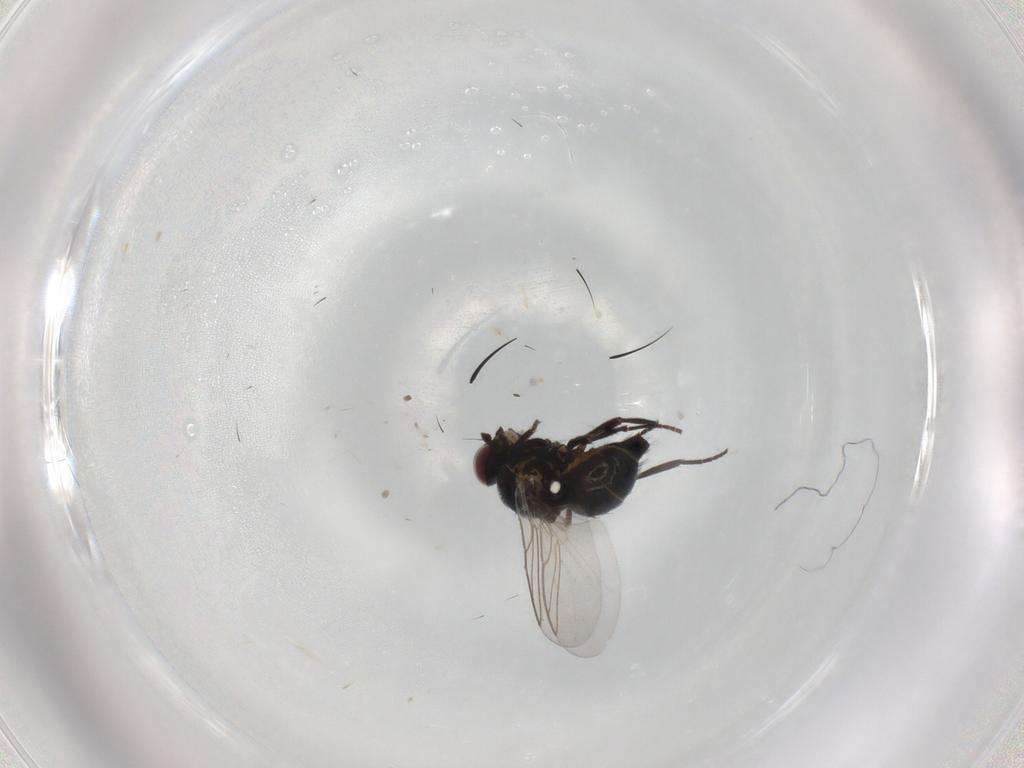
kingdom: Animalia
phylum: Arthropoda
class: Insecta
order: Diptera
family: Agromyzidae
